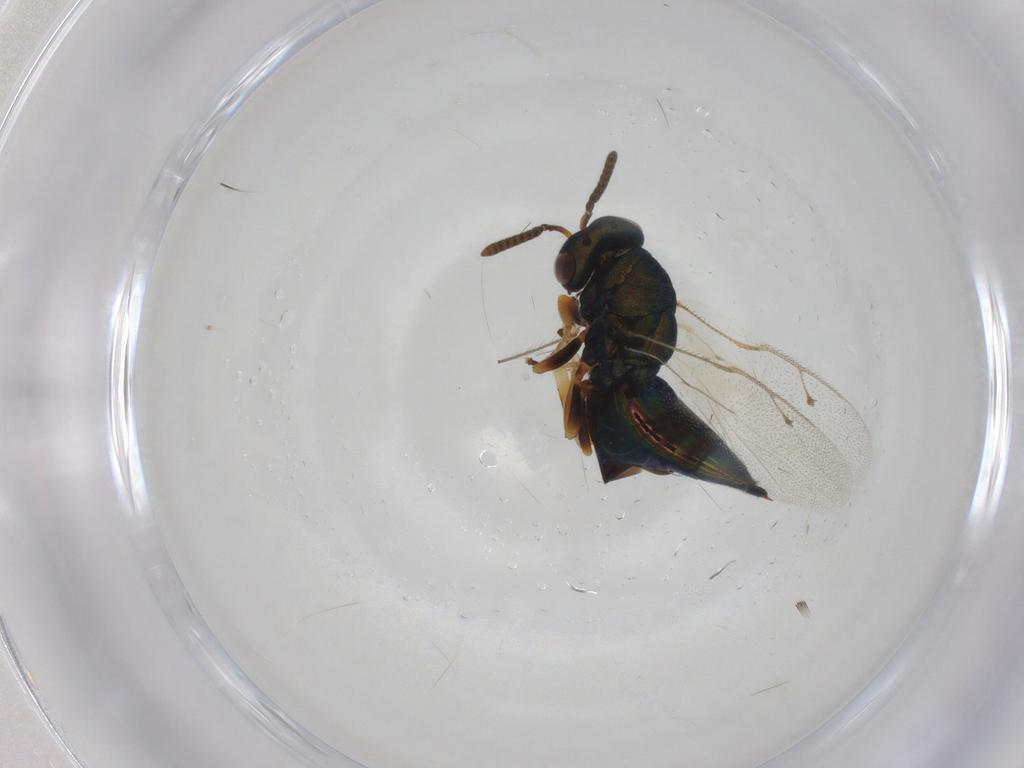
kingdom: Animalia
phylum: Arthropoda
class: Insecta
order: Hymenoptera
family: Pteromalidae
